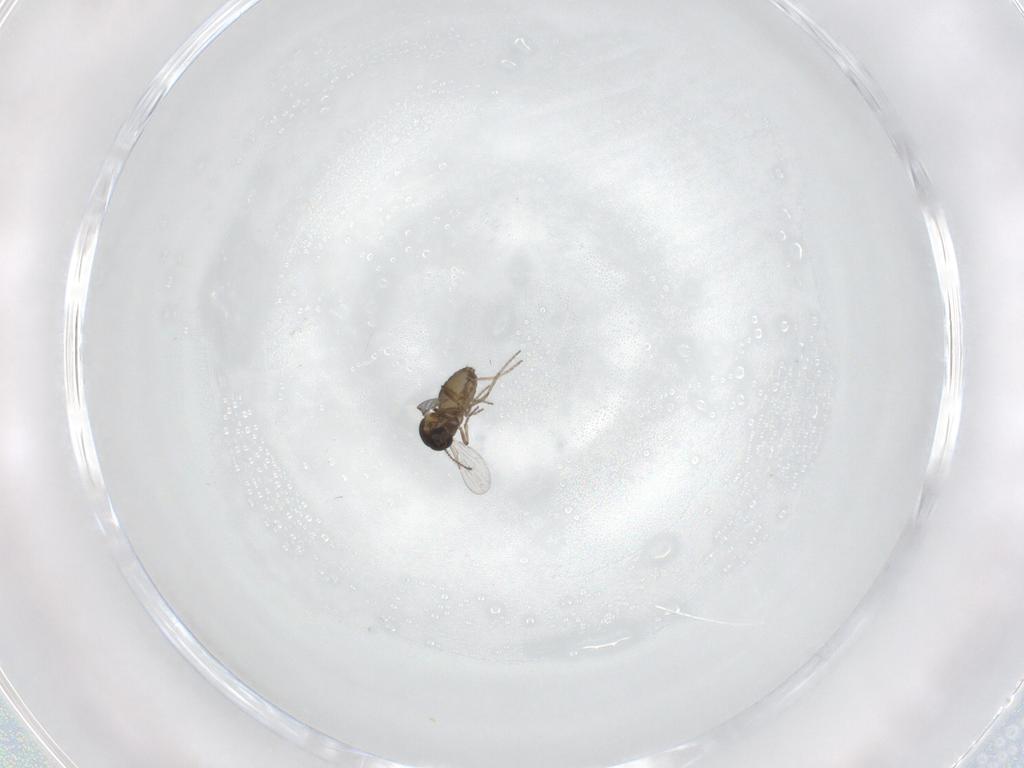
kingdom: Animalia
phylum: Arthropoda
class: Insecta
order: Diptera
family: Ceratopogonidae
